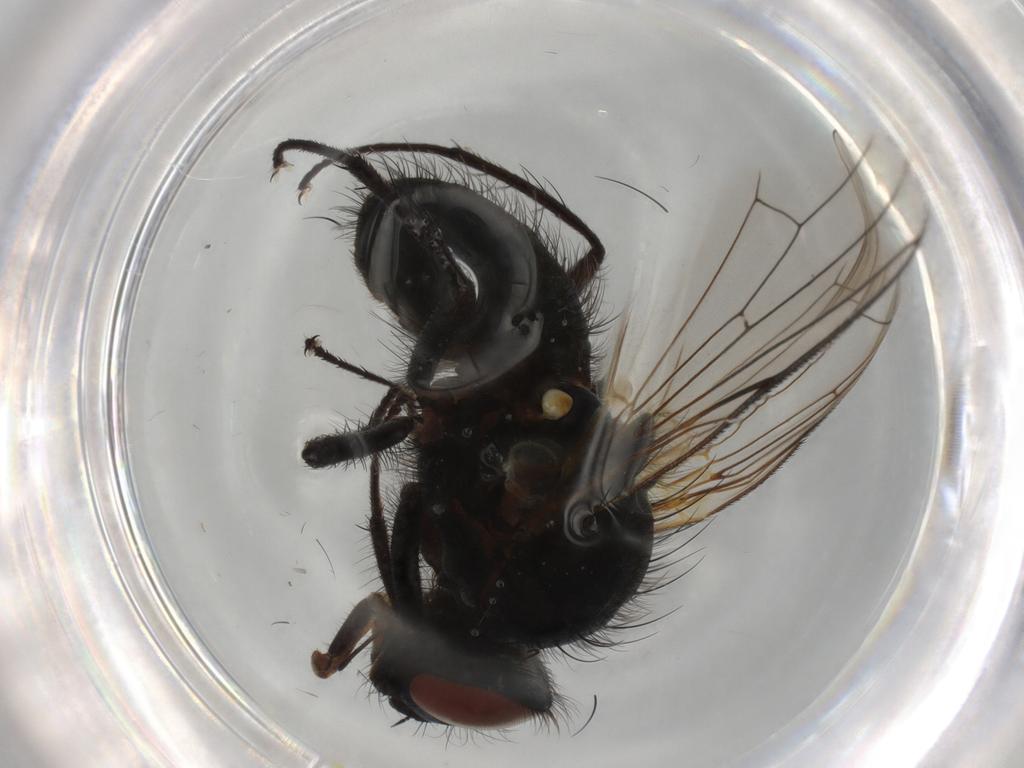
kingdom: Animalia
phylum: Arthropoda
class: Insecta
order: Diptera
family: Anthomyiidae
